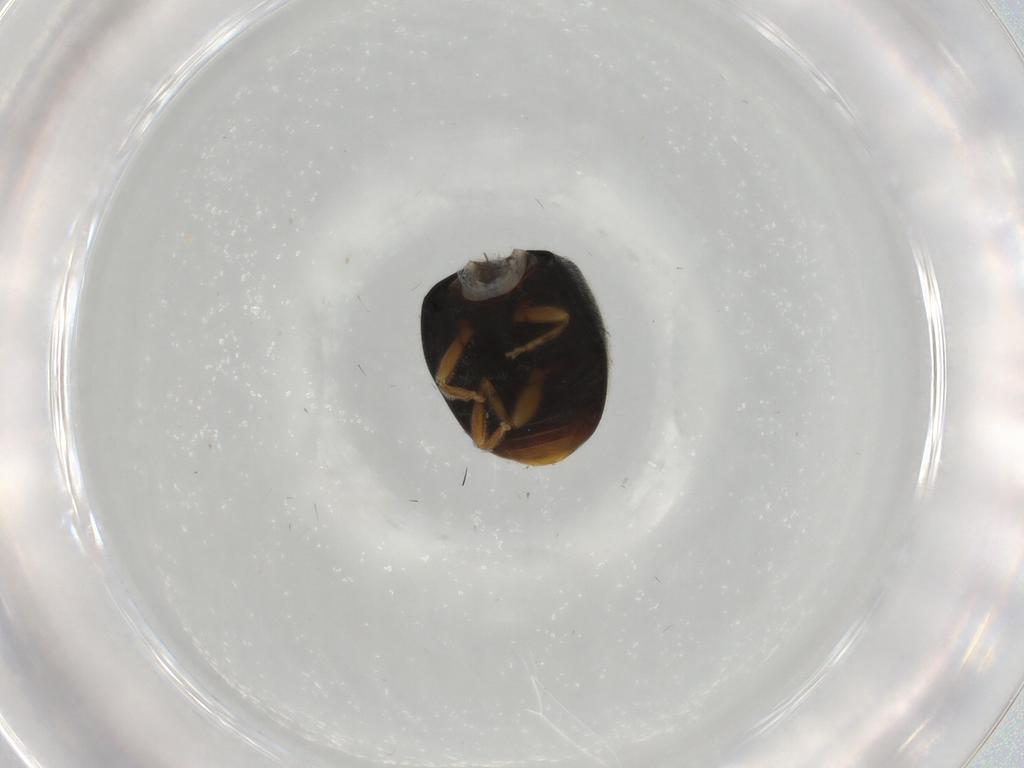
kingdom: Animalia
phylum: Arthropoda
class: Insecta
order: Coleoptera
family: Coccinellidae
